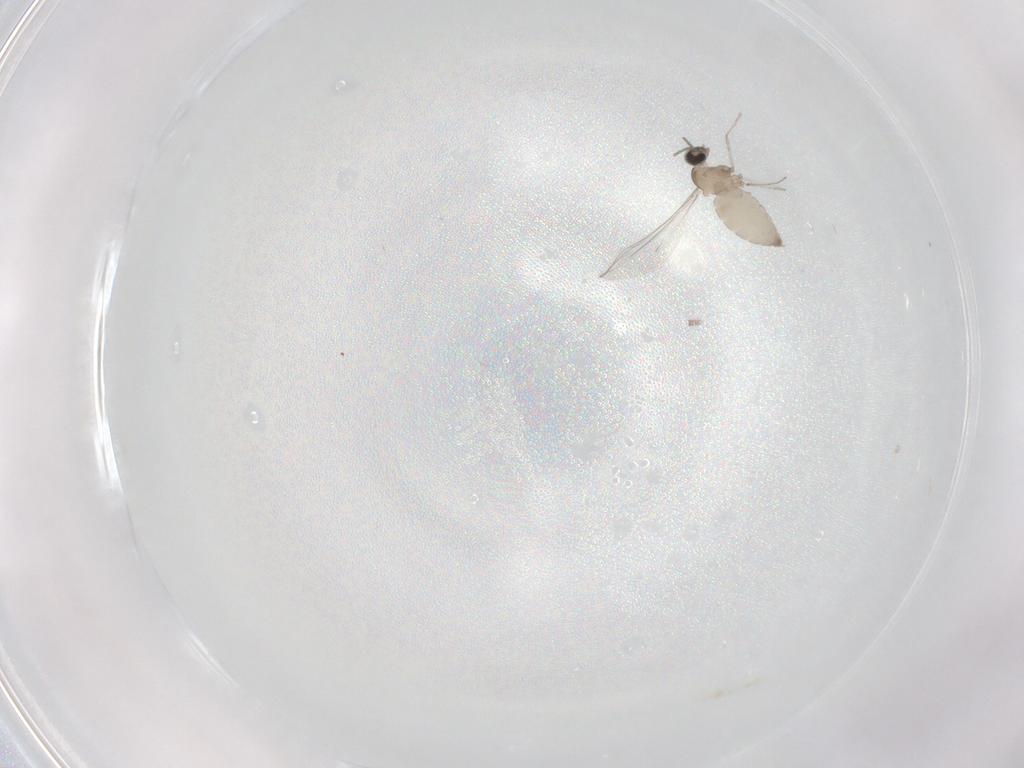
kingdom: Animalia
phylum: Arthropoda
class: Insecta
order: Diptera
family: Cecidomyiidae
